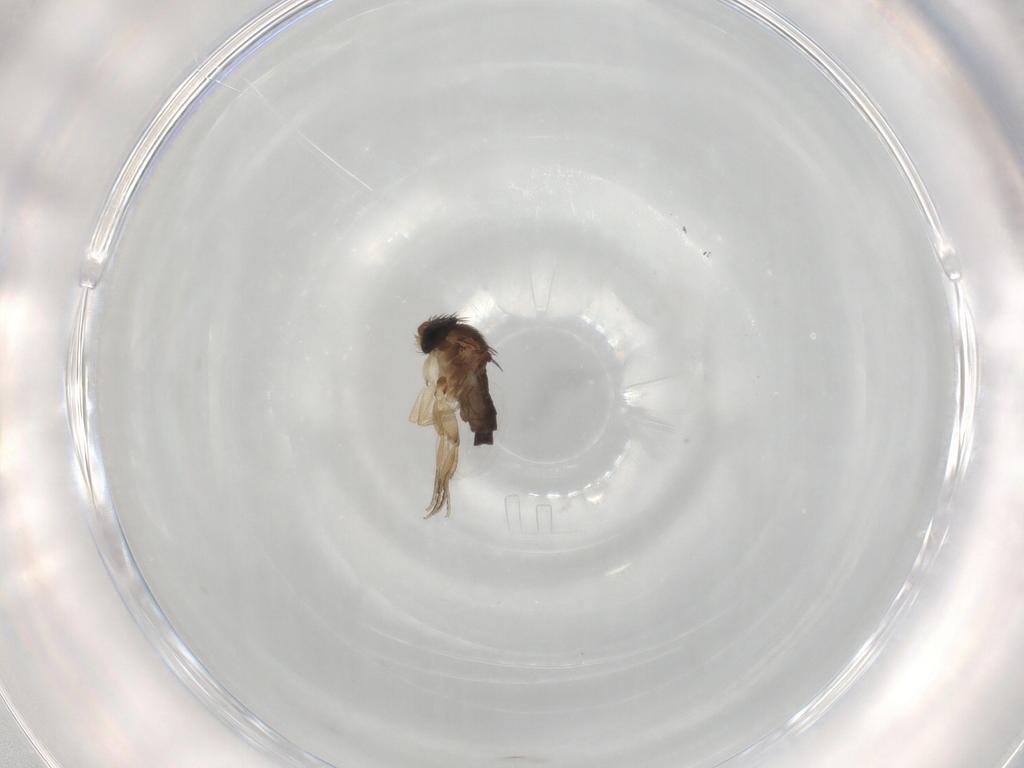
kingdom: Animalia
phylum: Arthropoda
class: Insecta
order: Diptera
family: Phoridae
